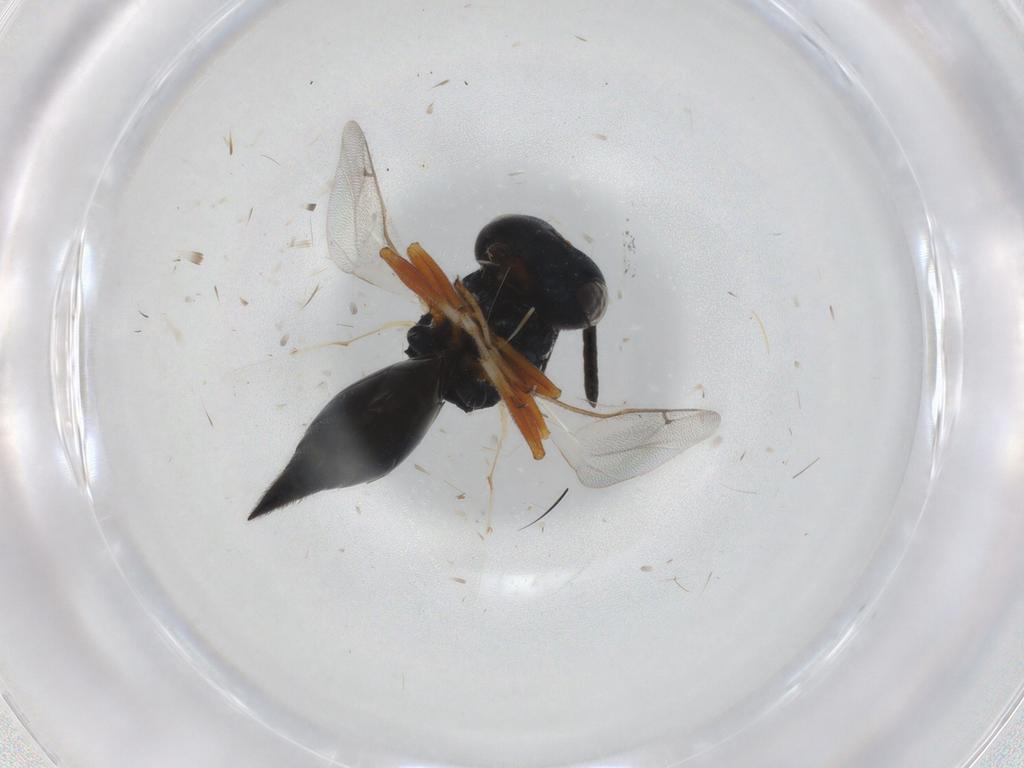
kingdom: Animalia
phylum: Arthropoda
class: Insecta
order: Hymenoptera
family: Pteromalidae
